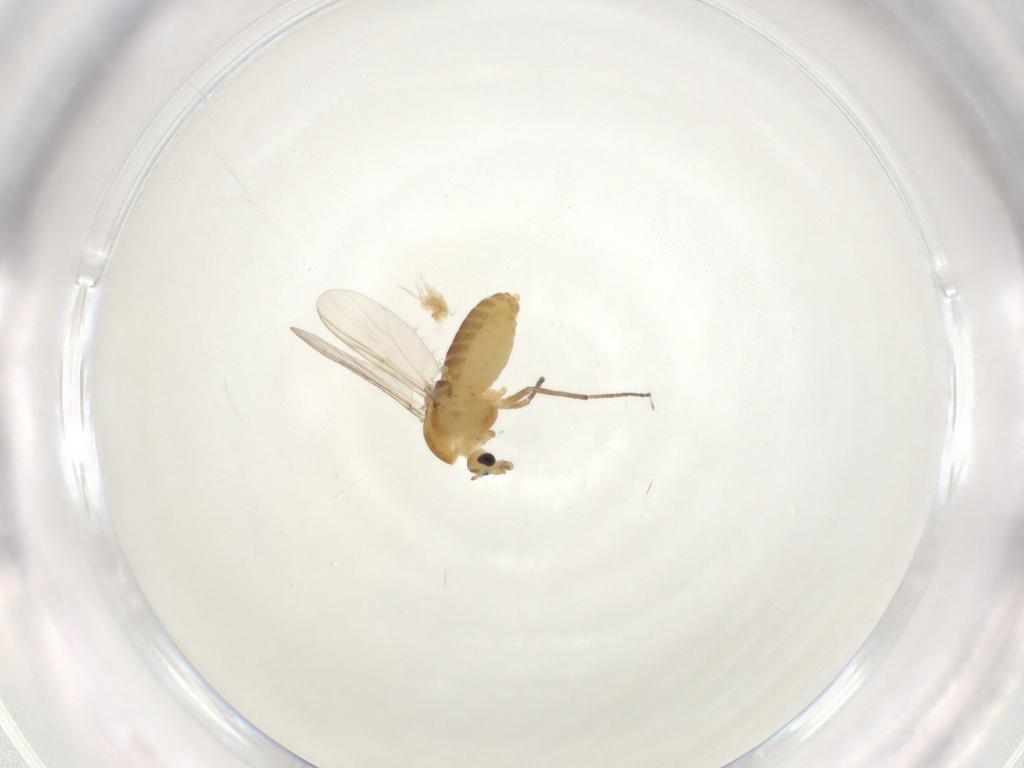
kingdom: Animalia
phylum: Arthropoda
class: Insecta
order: Diptera
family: Chironomidae
